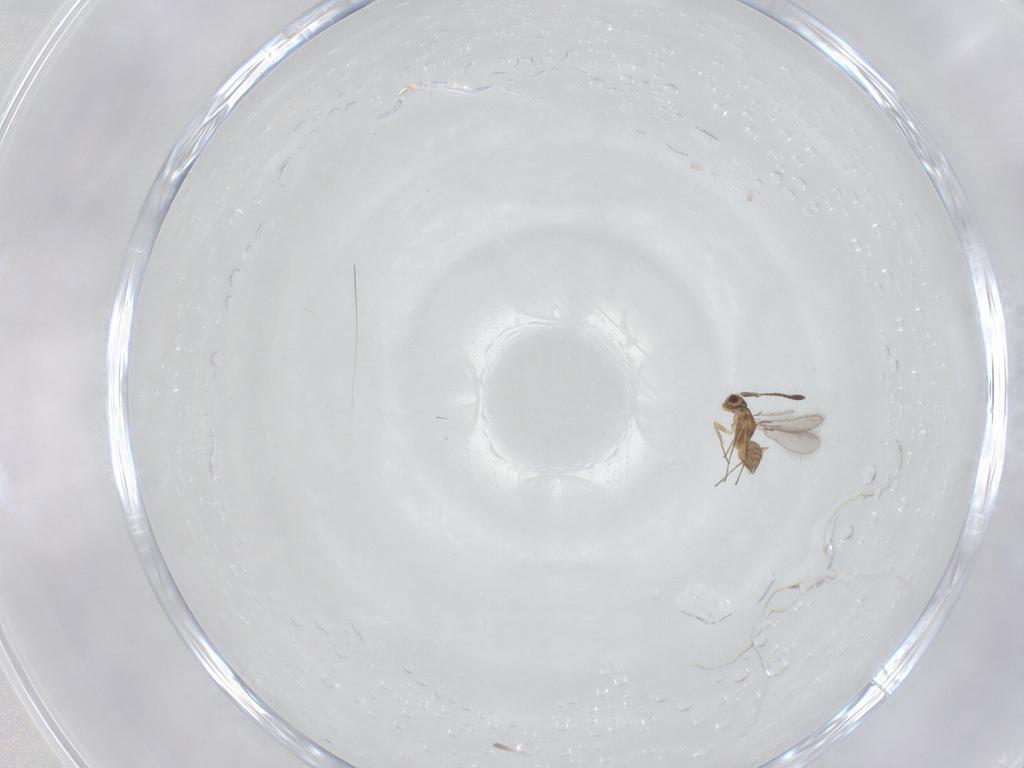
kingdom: Animalia
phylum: Arthropoda
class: Insecta
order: Hymenoptera
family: Mymaridae
